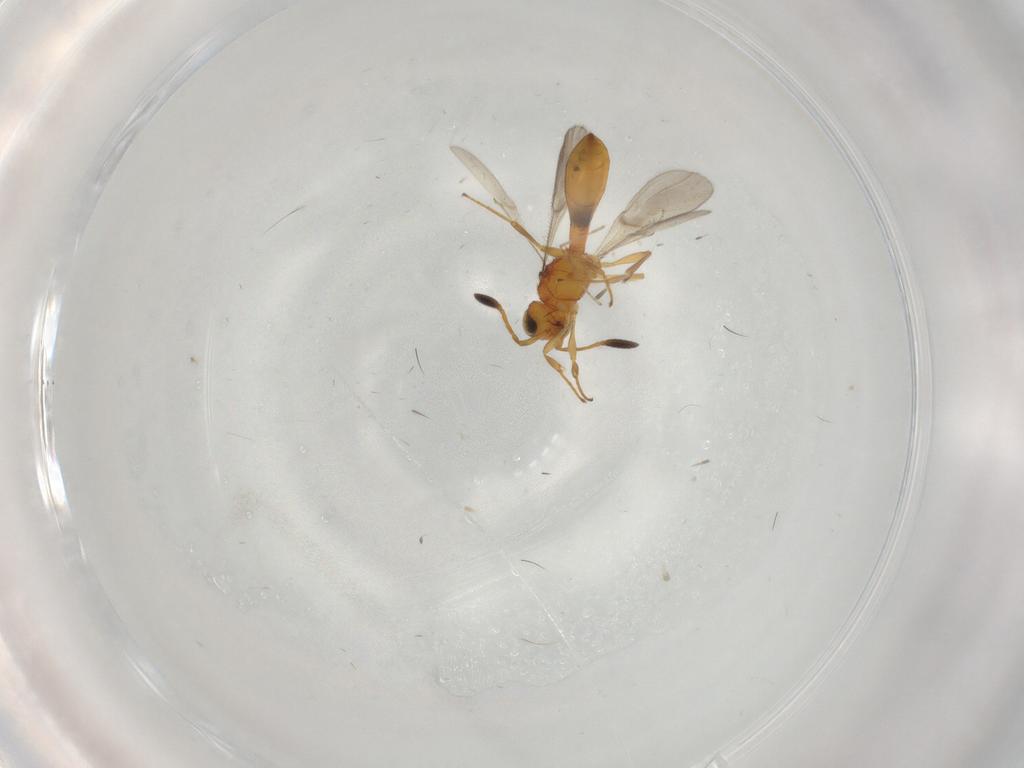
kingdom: Animalia
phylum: Arthropoda
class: Insecta
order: Hymenoptera
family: Scelionidae
